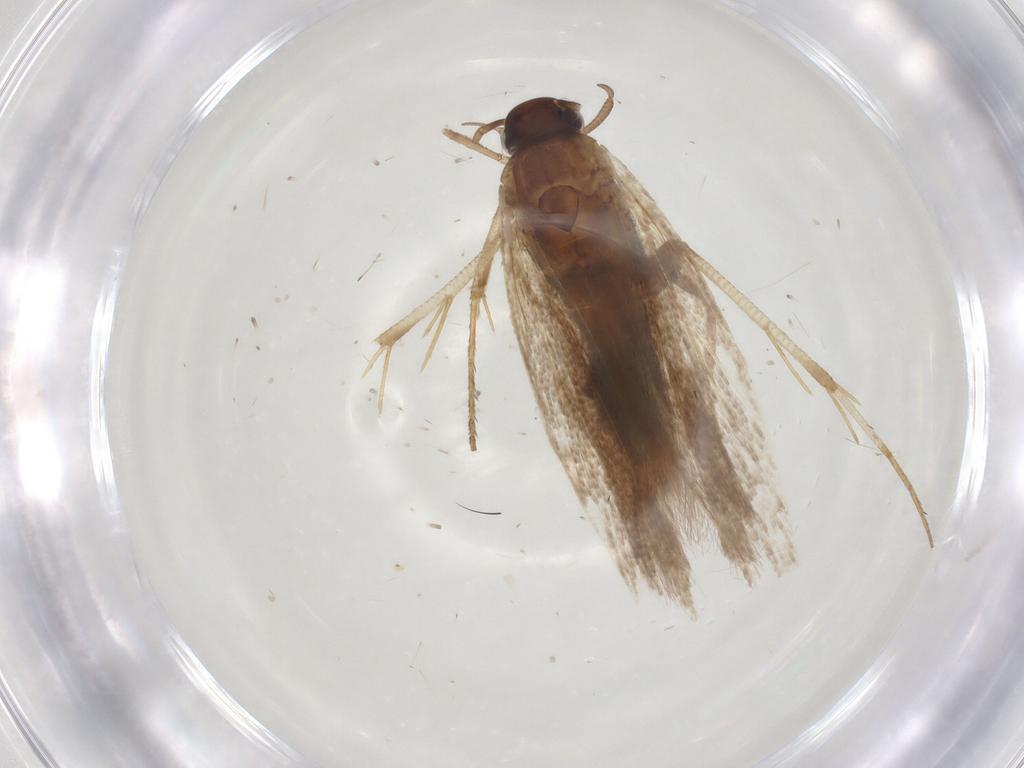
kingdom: Animalia
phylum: Arthropoda
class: Insecta
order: Lepidoptera
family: Gelechiidae
